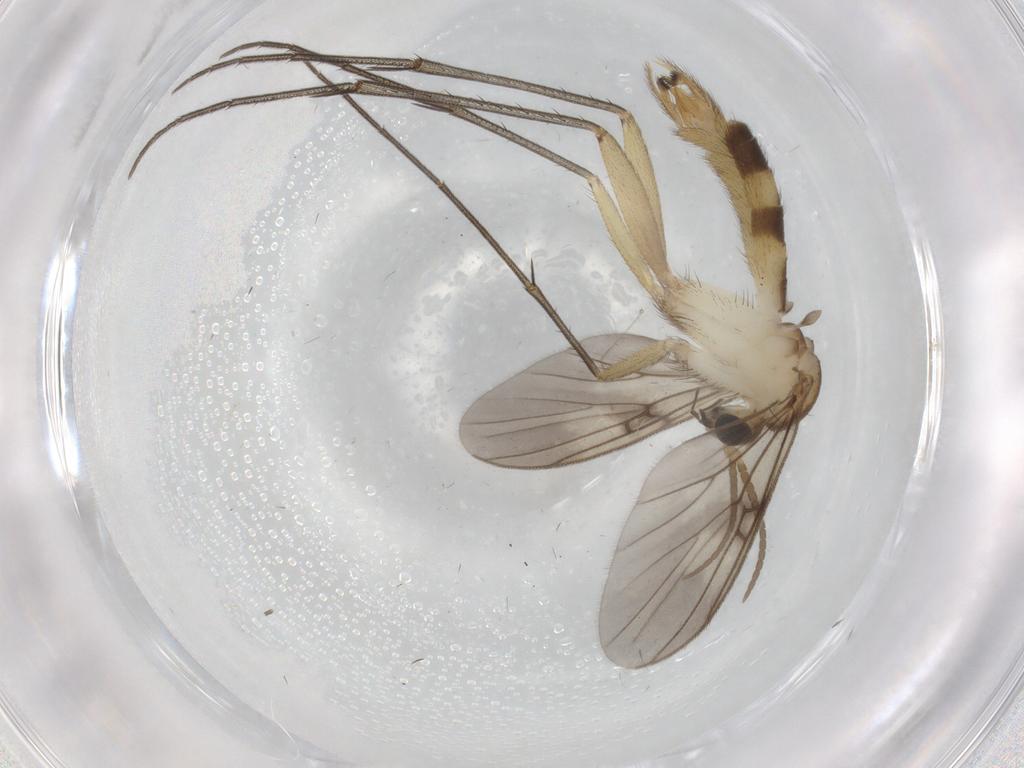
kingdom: Animalia
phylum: Arthropoda
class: Insecta
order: Diptera
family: Mycetophilidae
